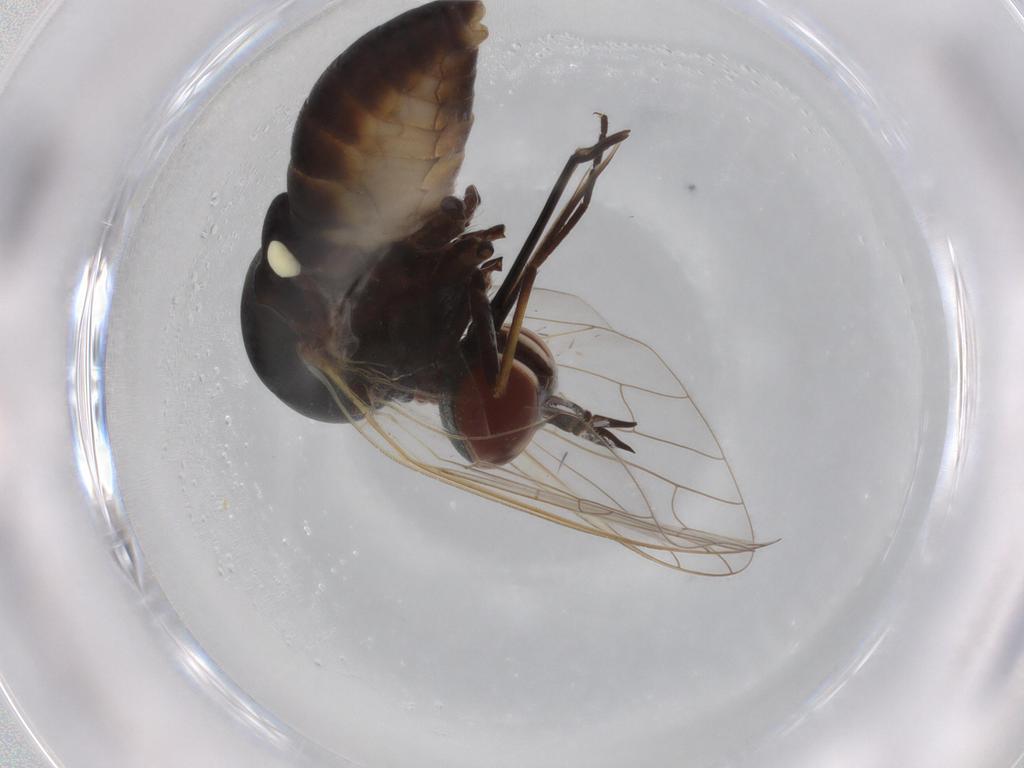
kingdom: Animalia
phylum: Arthropoda
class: Insecta
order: Diptera
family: Bombyliidae
